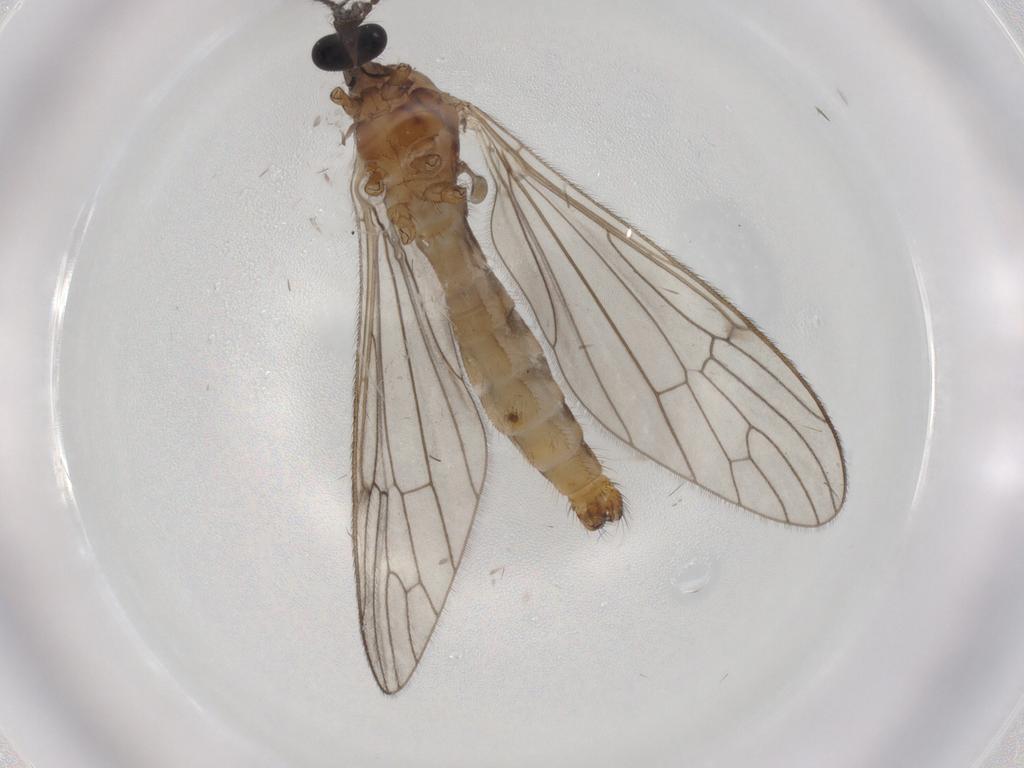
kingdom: Animalia
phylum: Arthropoda
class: Insecta
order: Diptera
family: Limoniidae
